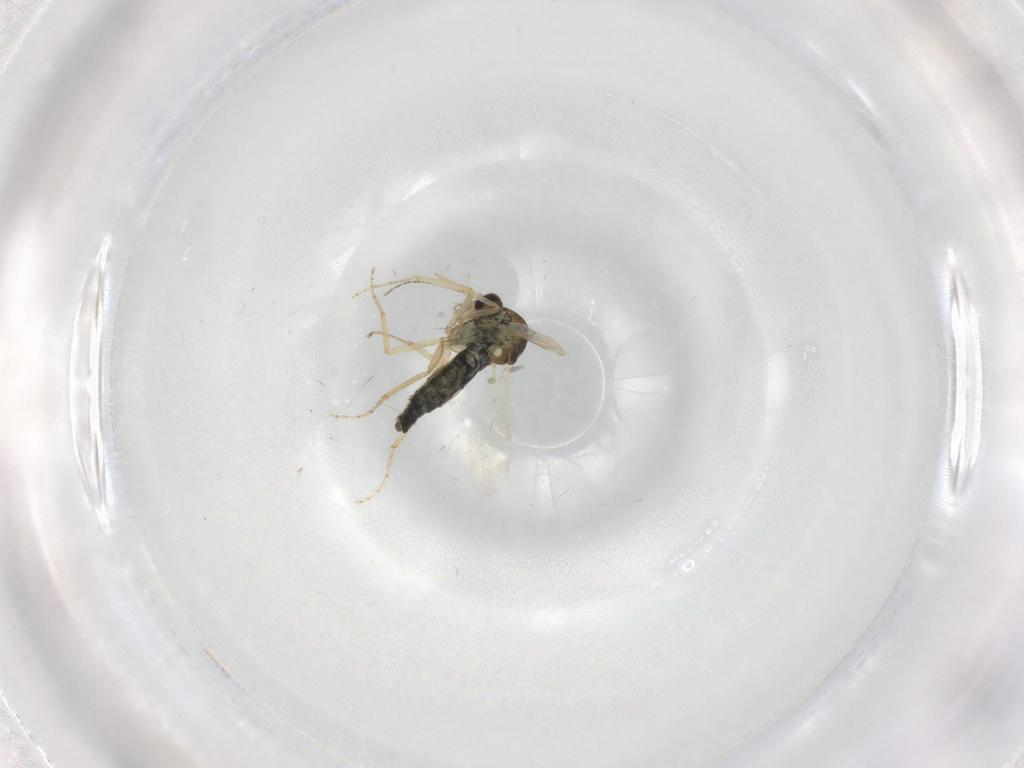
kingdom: Animalia
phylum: Arthropoda
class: Insecta
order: Diptera
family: Ceratopogonidae
